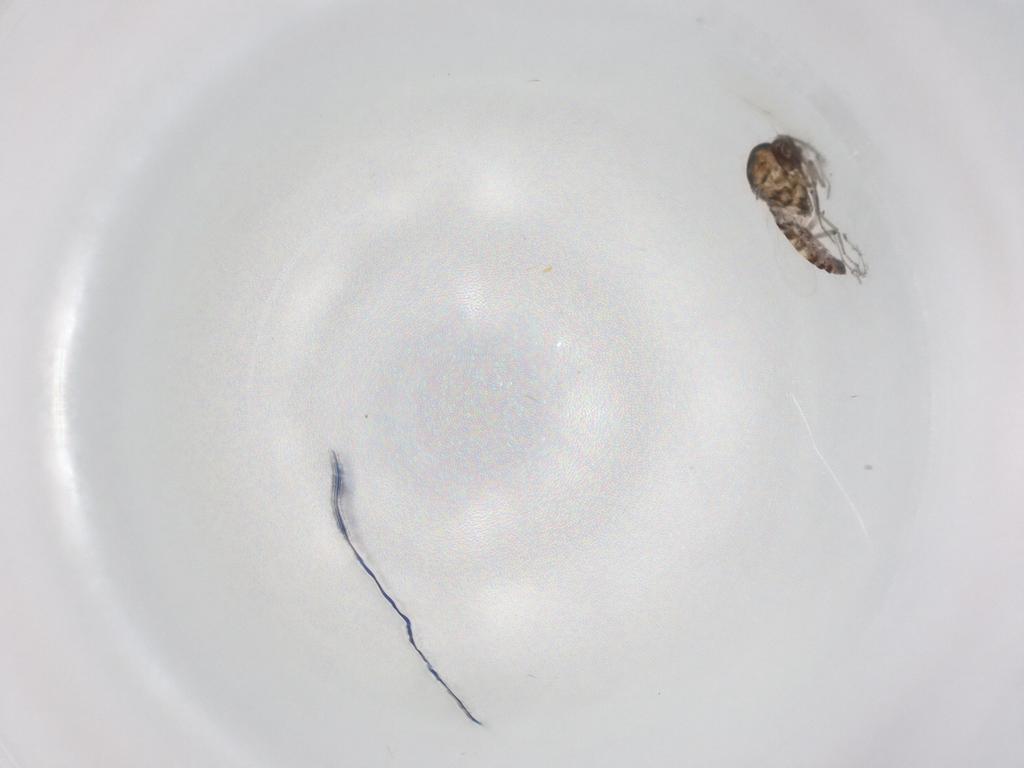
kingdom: Animalia
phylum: Arthropoda
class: Insecta
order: Diptera
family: Ceratopogonidae
